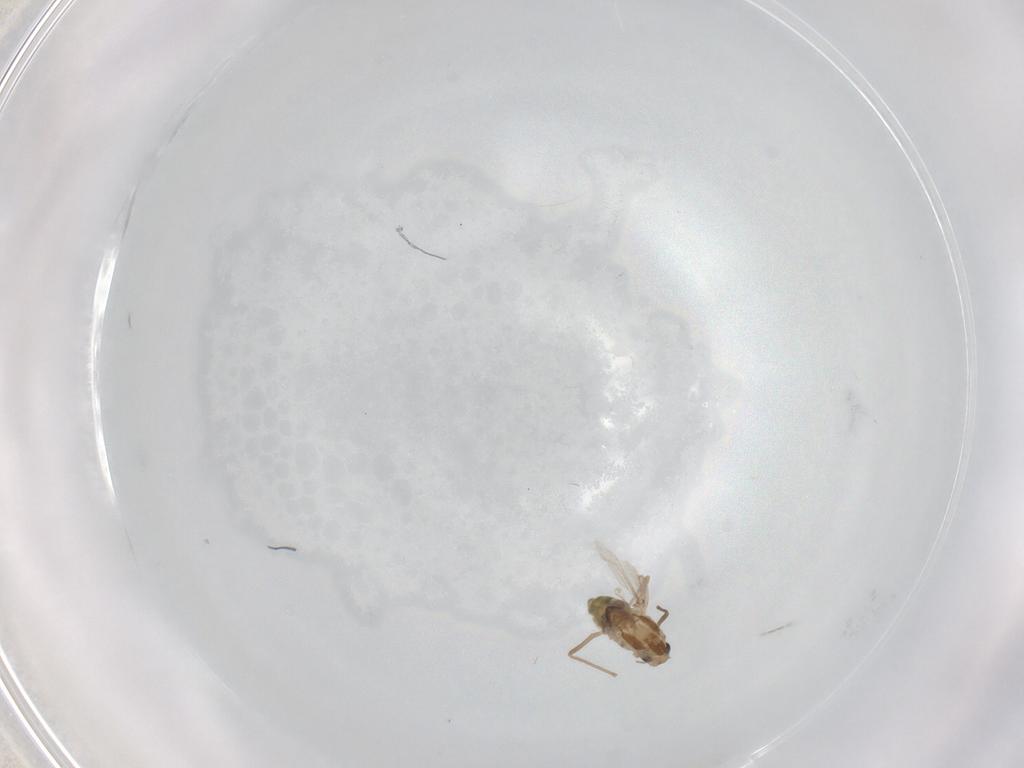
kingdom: Animalia
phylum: Arthropoda
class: Insecta
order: Diptera
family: Chironomidae
